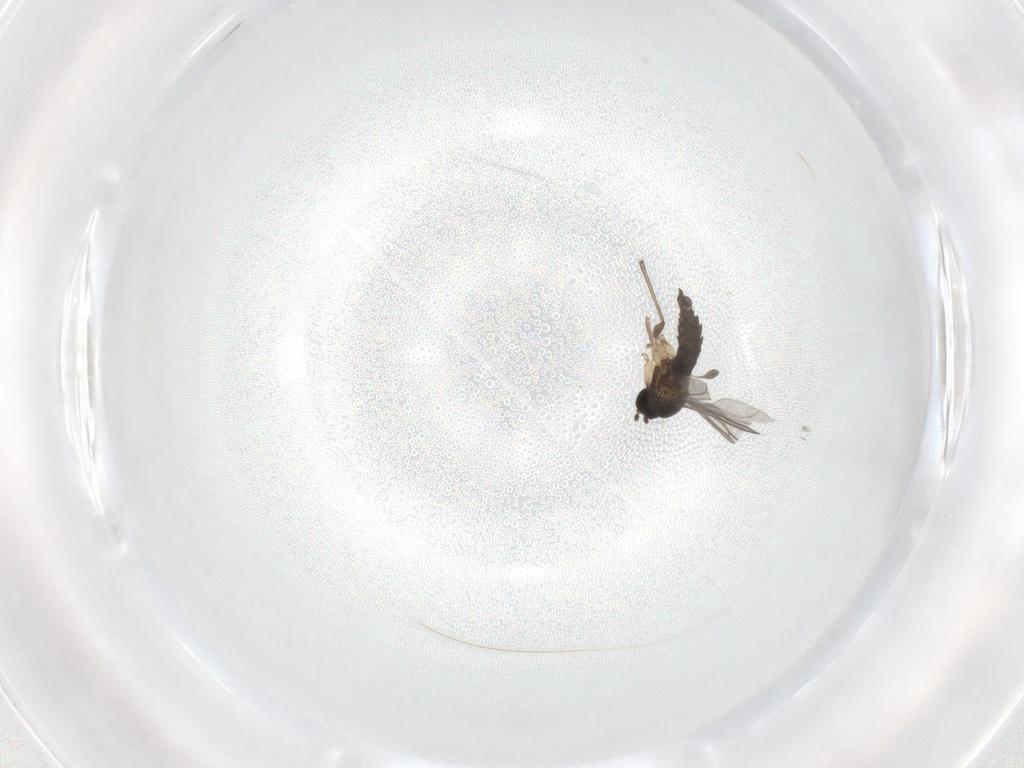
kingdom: Animalia
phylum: Arthropoda
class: Insecta
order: Diptera
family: Sciaridae
